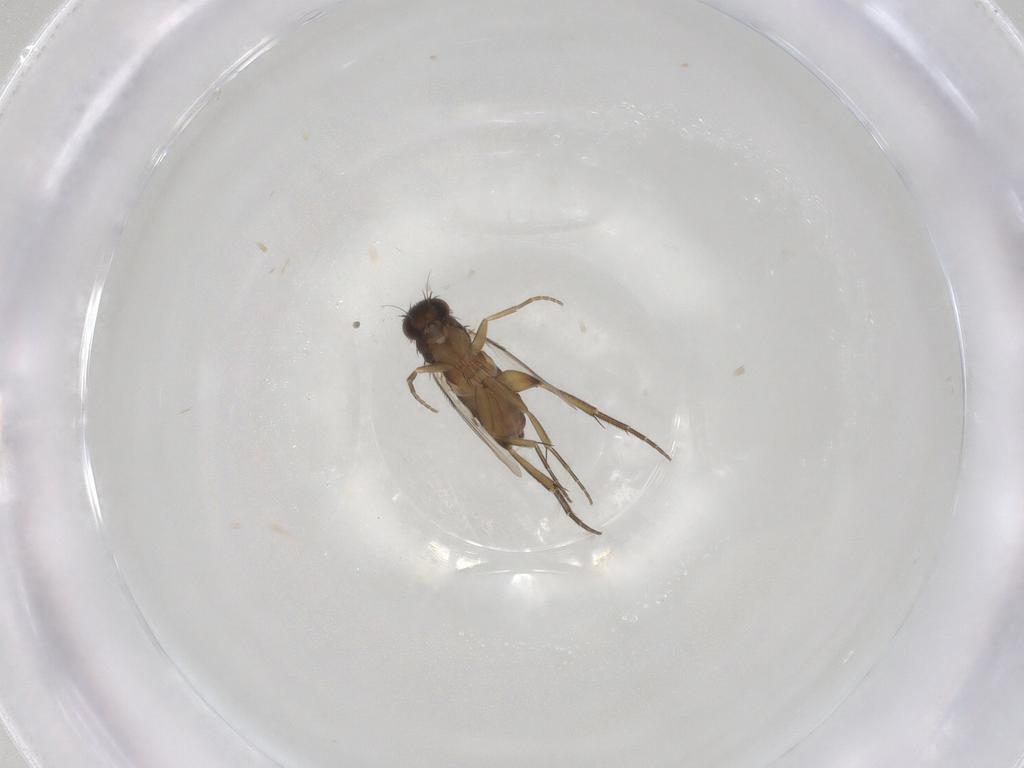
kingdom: Animalia
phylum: Arthropoda
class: Insecta
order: Diptera
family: Phoridae
